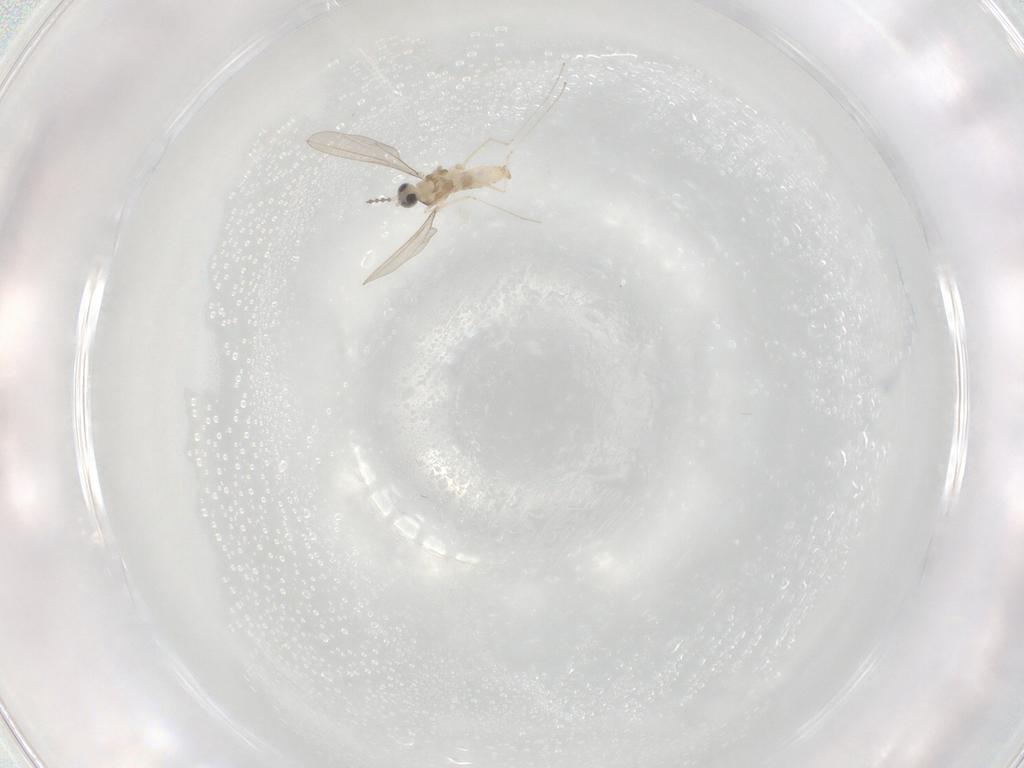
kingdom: Animalia
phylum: Arthropoda
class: Insecta
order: Diptera
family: Cecidomyiidae
